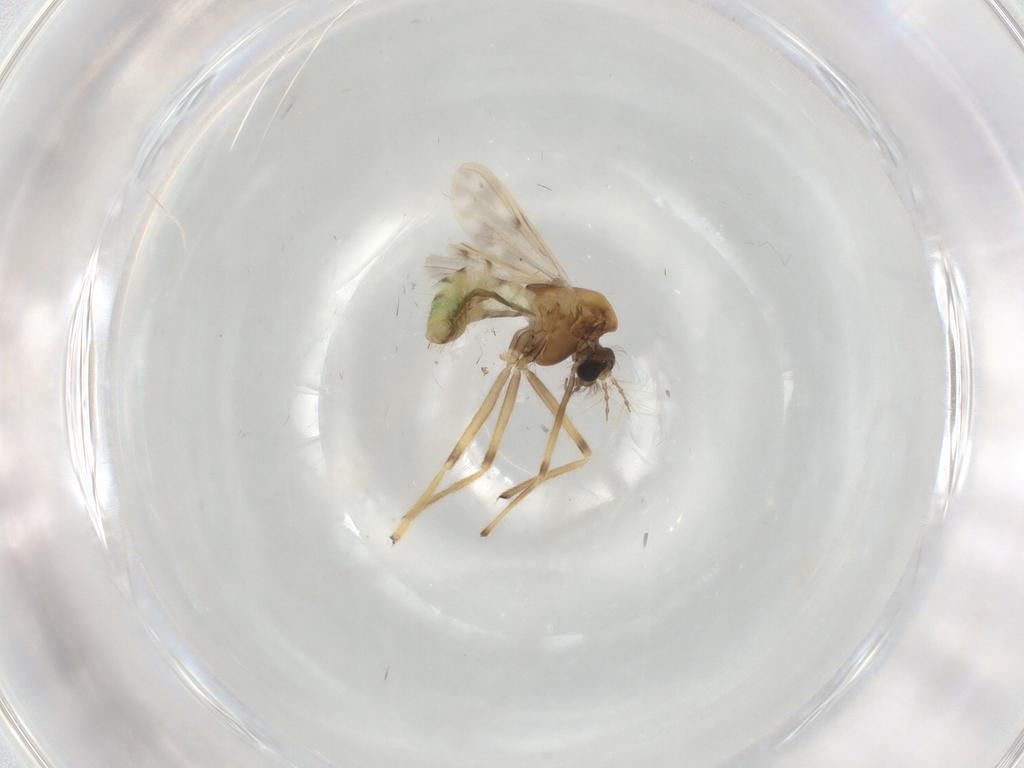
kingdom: Animalia
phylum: Arthropoda
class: Insecta
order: Diptera
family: Chironomidae
